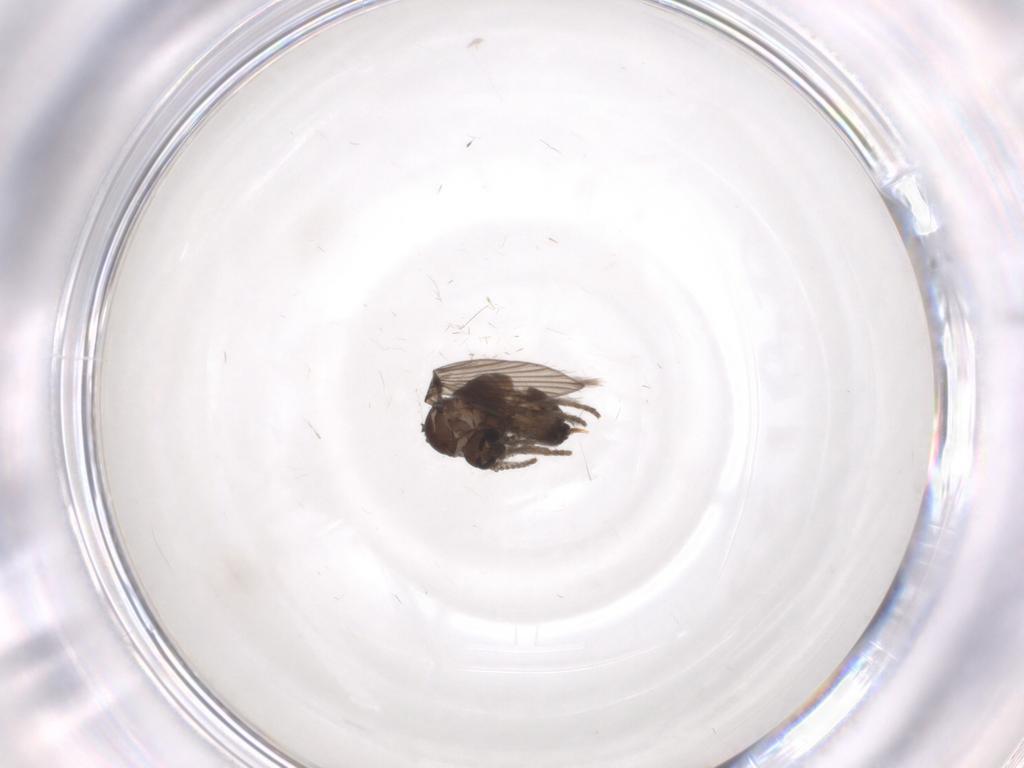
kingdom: Animalia
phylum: Arthropoda
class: Insecta
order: Diptera
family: Psychodidae
